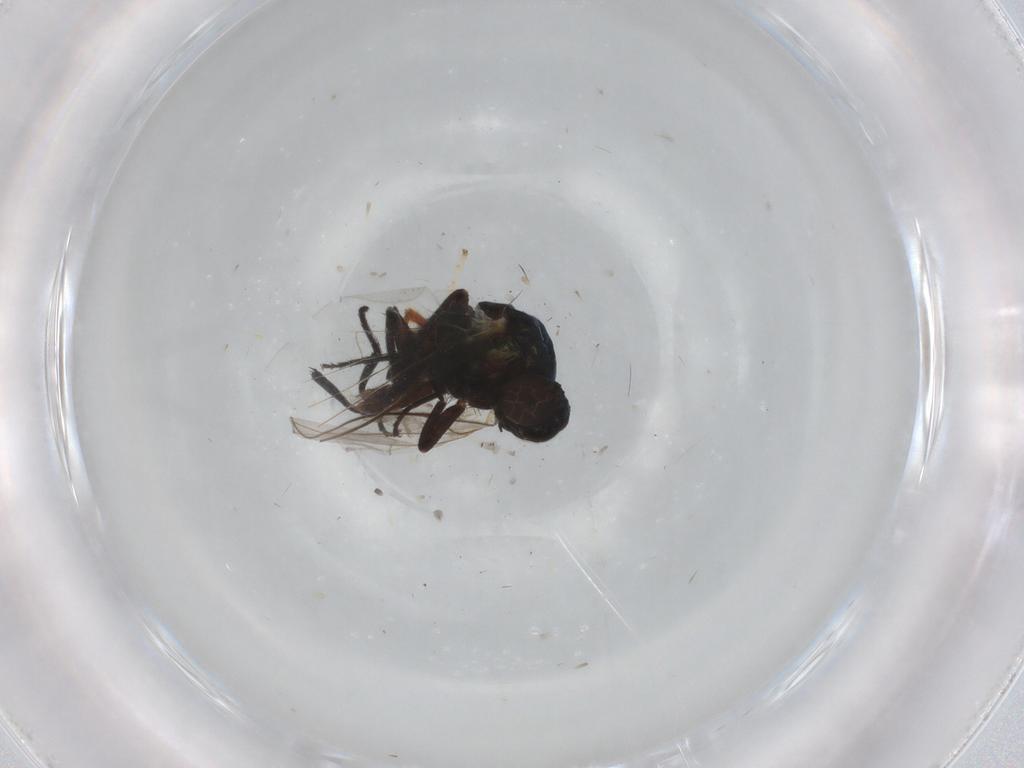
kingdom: Animalia
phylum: Arthropoda
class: Insecta
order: Diptera
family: Agromyzidae
